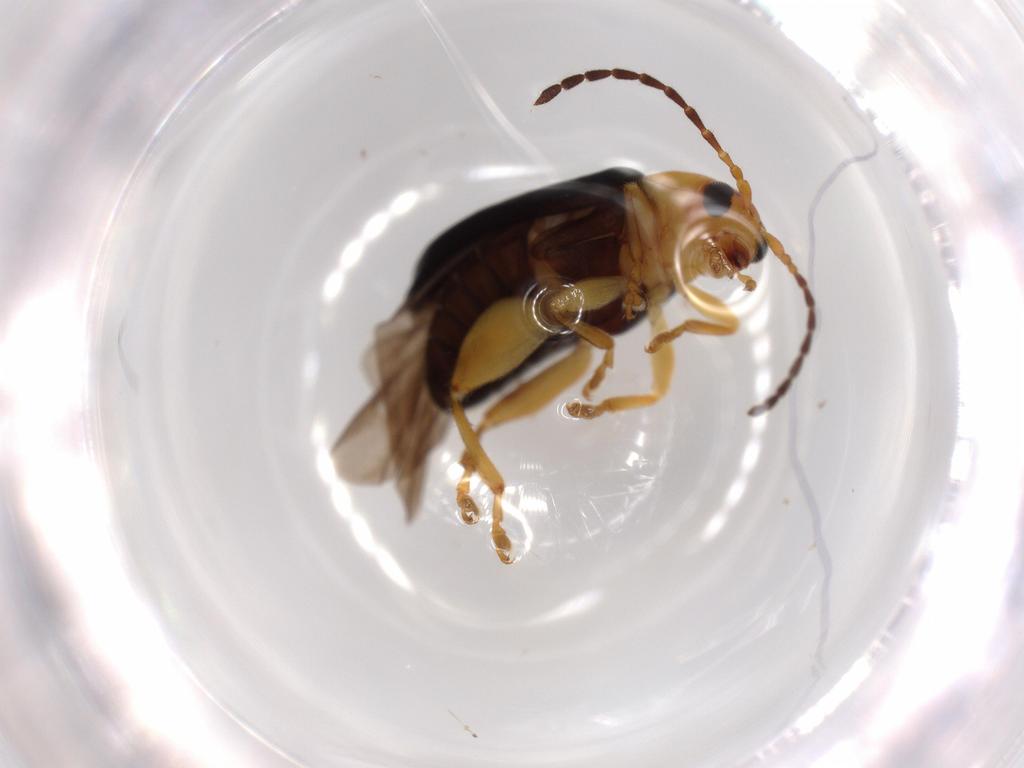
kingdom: Animalia
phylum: Arthropoda
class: Insecta
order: Coleoptera
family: Chrysomelidae
